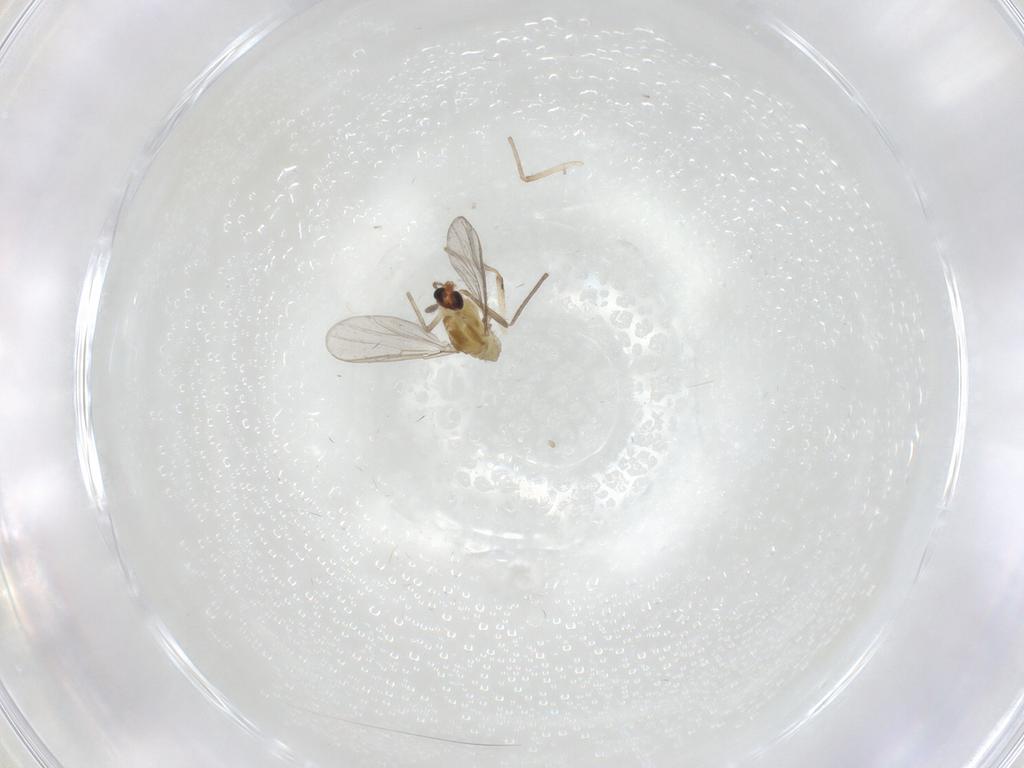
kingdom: Animalia
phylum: Arthropoda
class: Insecta
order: Diptera
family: Chironomidae
